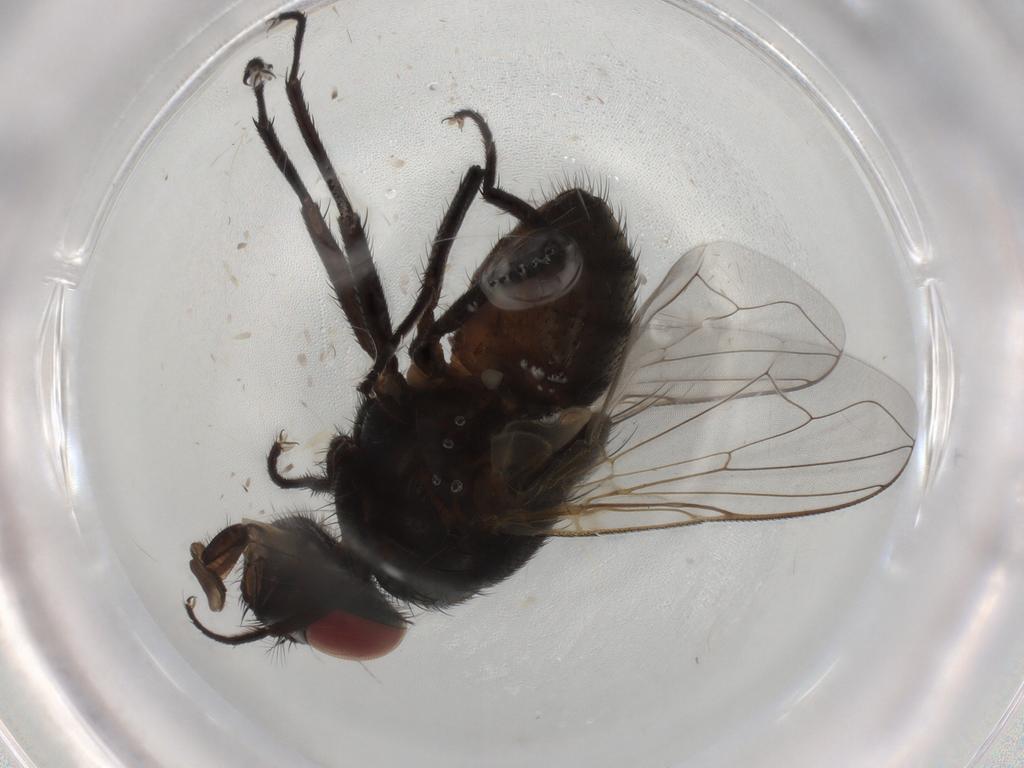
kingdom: Animalia
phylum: Arthropoda
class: Insecta
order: Diptera
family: Muscidae
